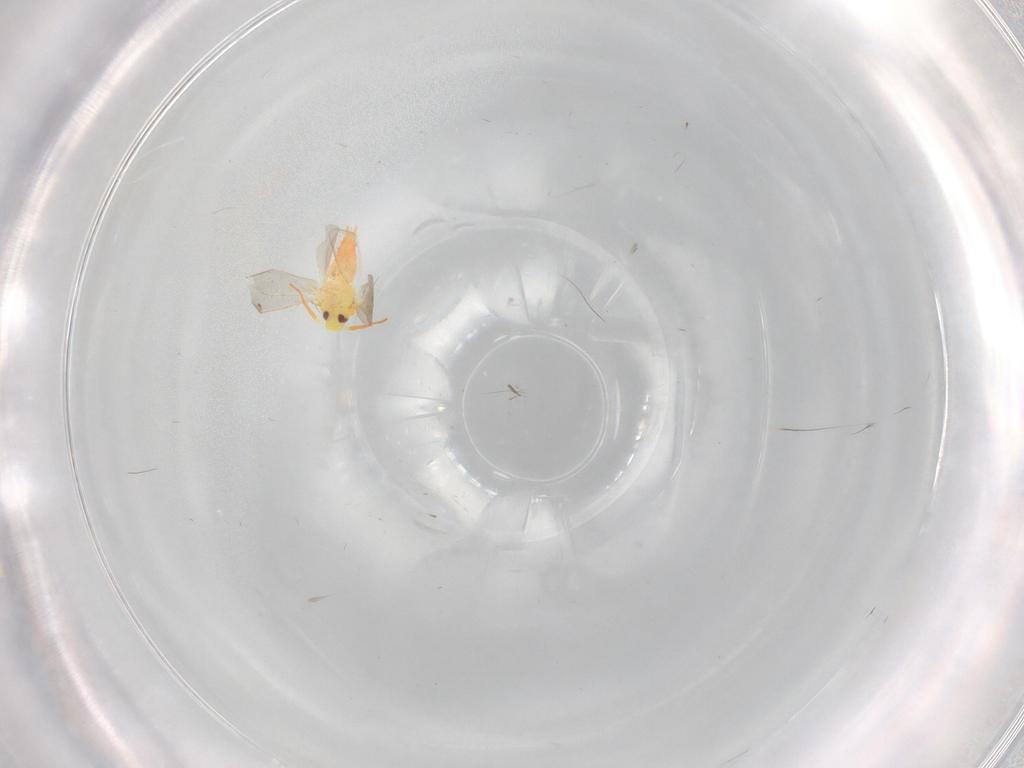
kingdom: Animalia
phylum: Arthropoda
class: Insecta
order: Hemiptera
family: Aleyrodidae
